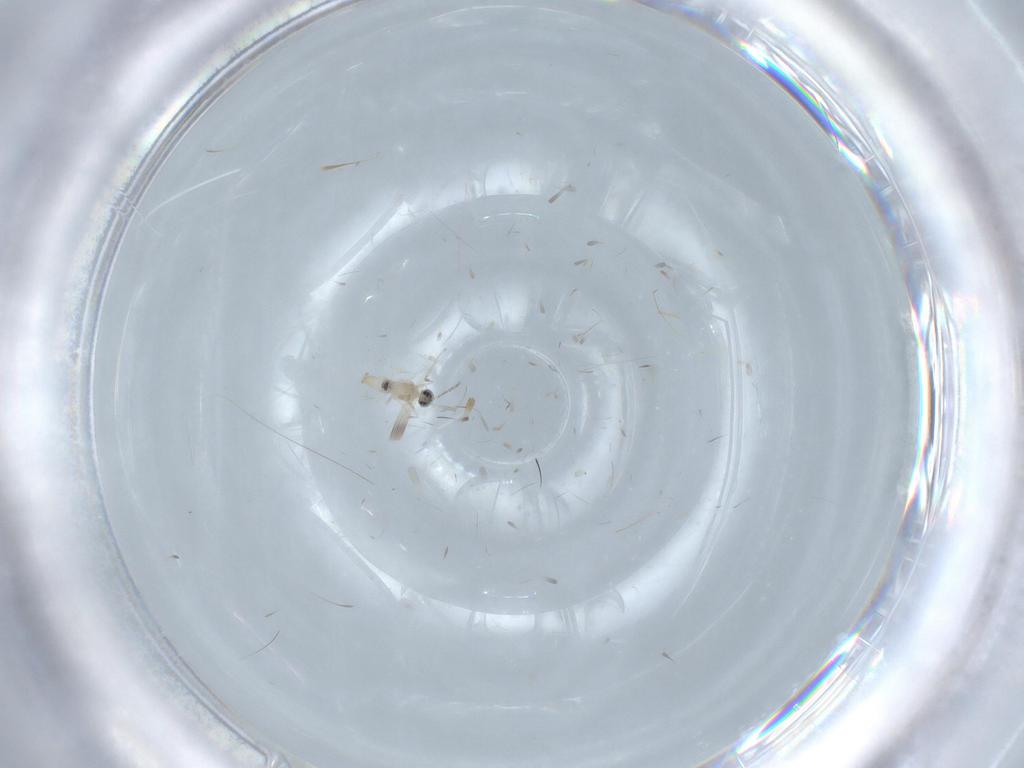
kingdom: Animalia
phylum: Arthropoda
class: Insecta
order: Diptera
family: Cecidomyiidae
